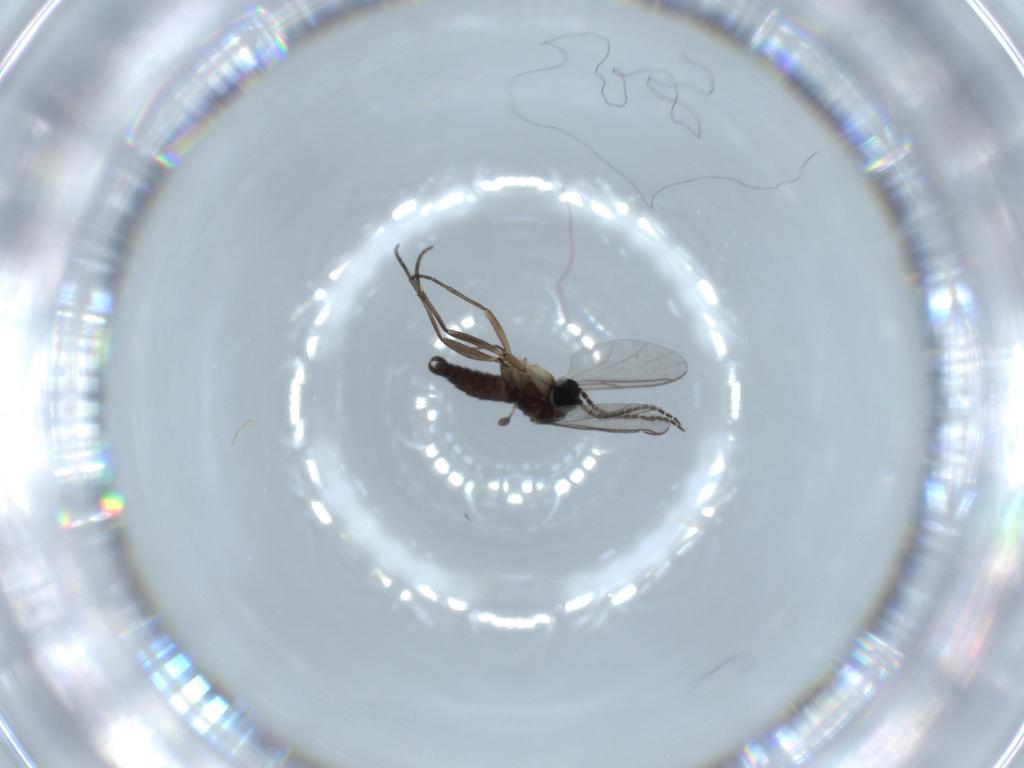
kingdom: Animalia
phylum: Arthropoda
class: Insecta
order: Diptera
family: Sciaridae
